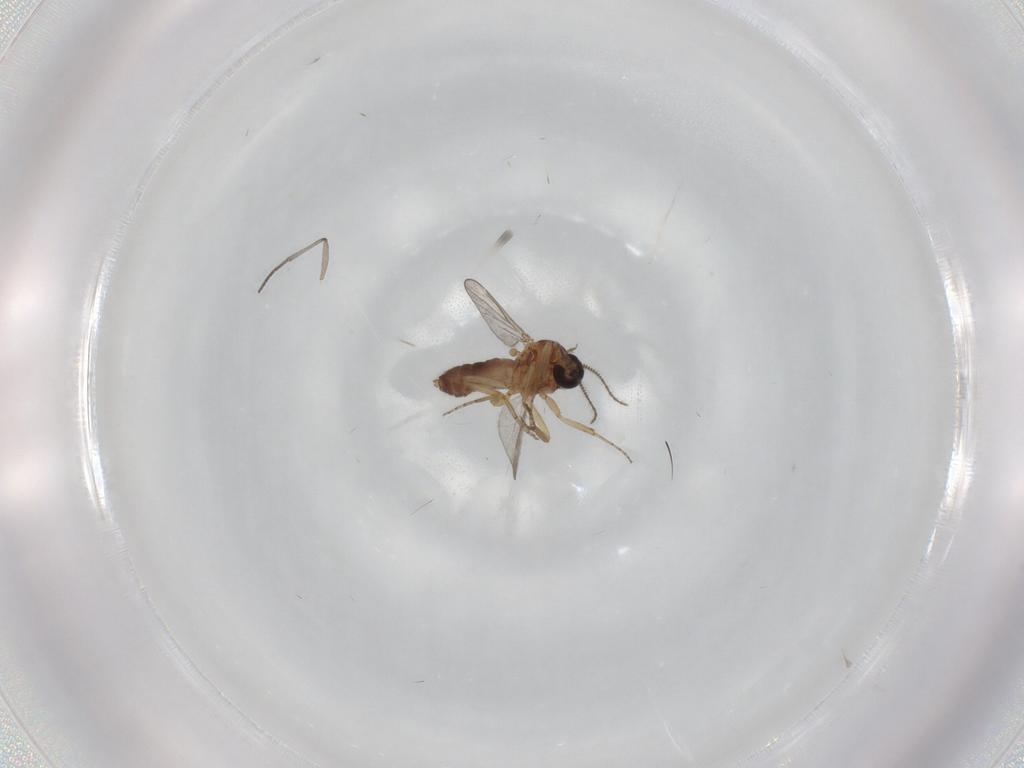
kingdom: Animalia
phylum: Arthropoda
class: Insecta
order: Diptera
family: Ceratopogonidae
